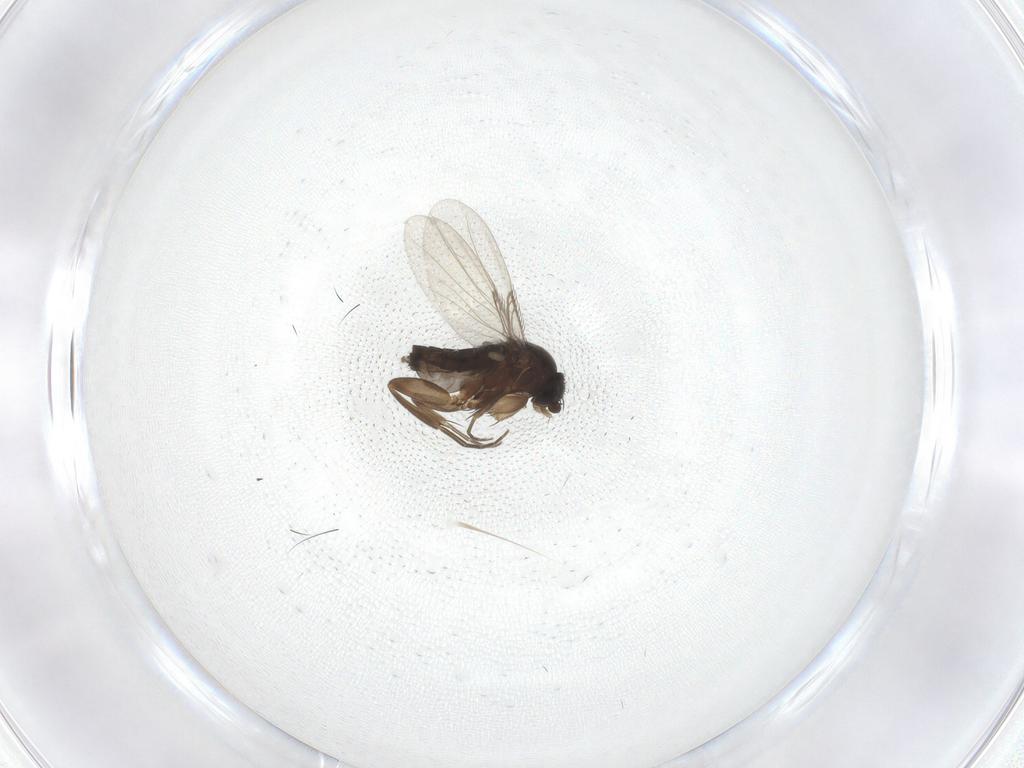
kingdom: Animalia
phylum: Arthropoda
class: Insecta
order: Diptera
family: Phoridae
